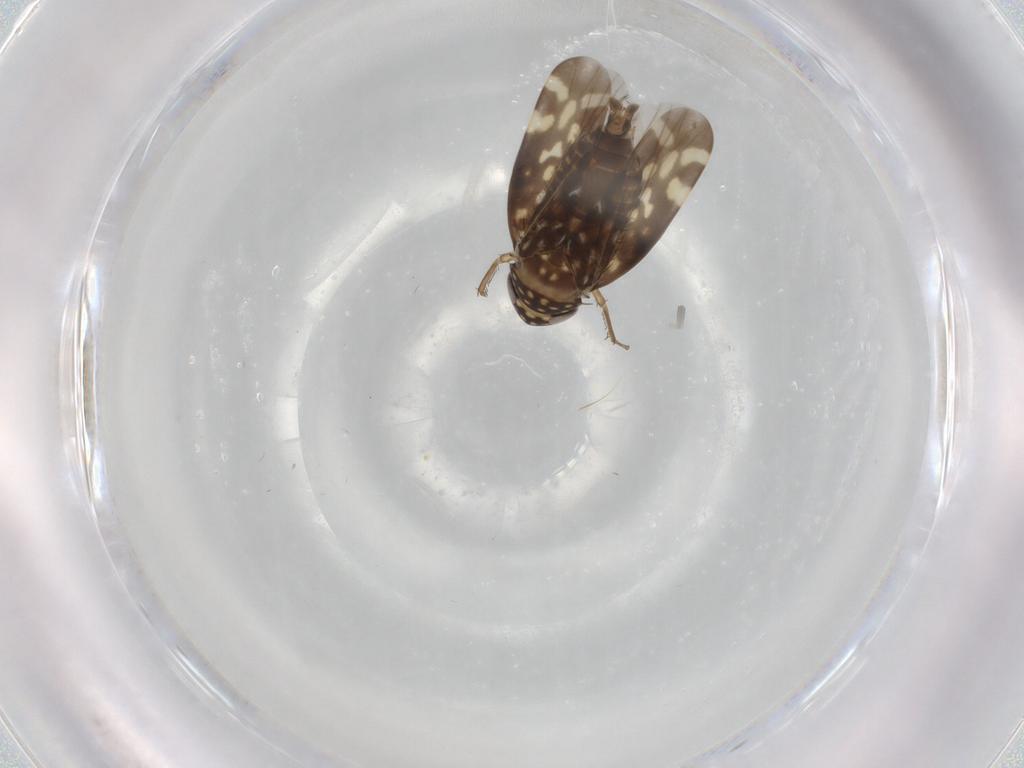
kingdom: Animalia
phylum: Arthropoda
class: Insecta
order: Hemiptera
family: Cicadellidae
